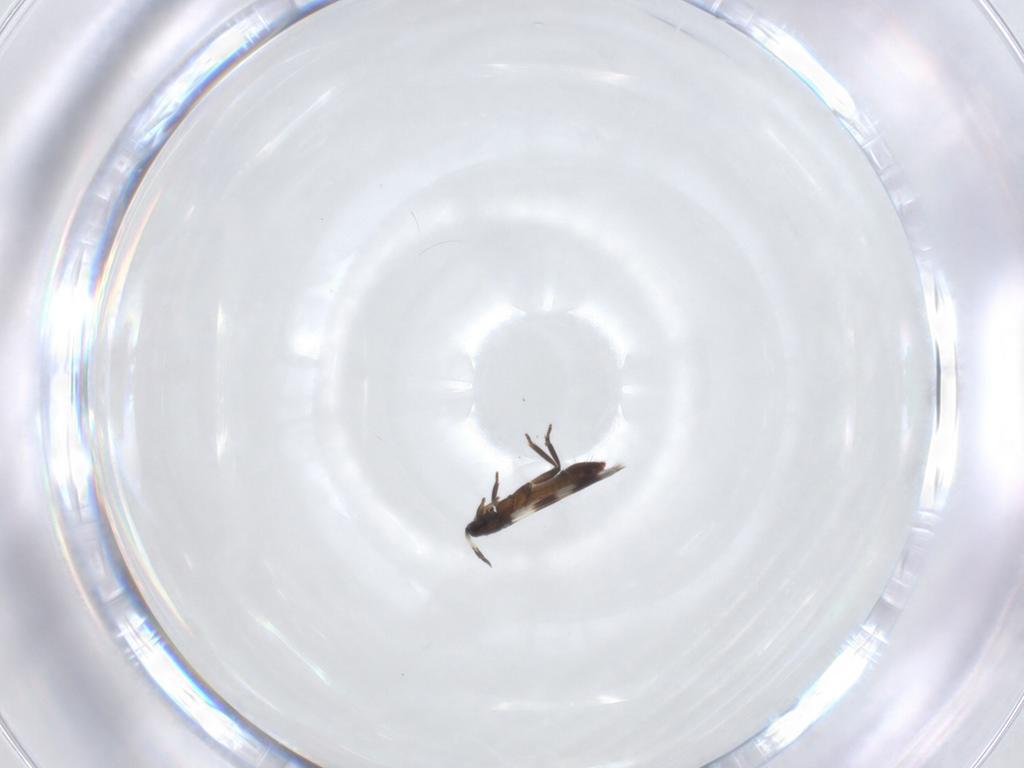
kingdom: Animalia
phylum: Arthropoda
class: Insecta
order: Thysanoptera
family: Aeolothripidae
